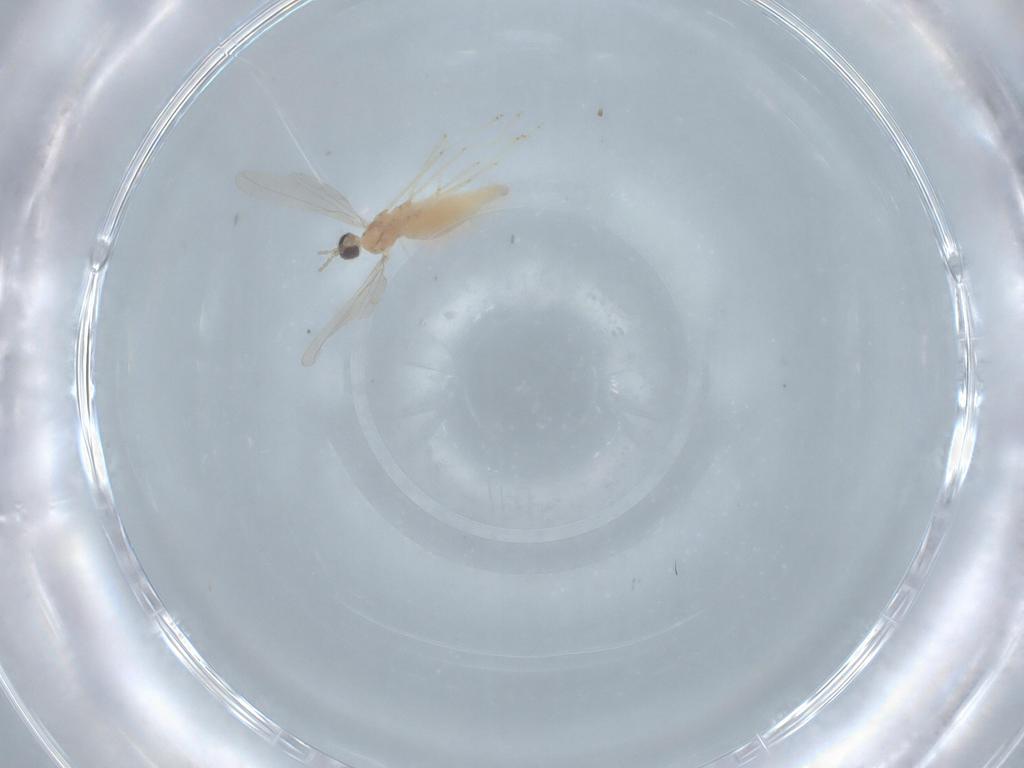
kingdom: Animalia
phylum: Arthropoda
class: Insecta
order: Diptera
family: Cecidomyiidae
